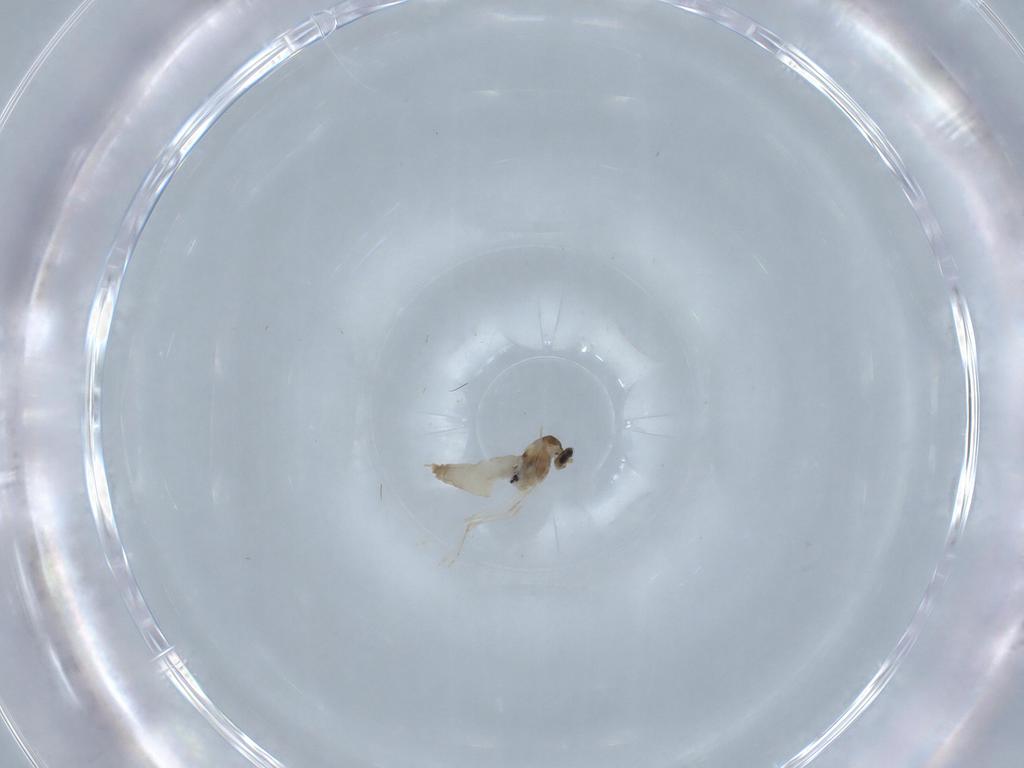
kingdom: Animalia
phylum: Arthropoda
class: Insecta
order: Diptera
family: Cecidomyiidae
